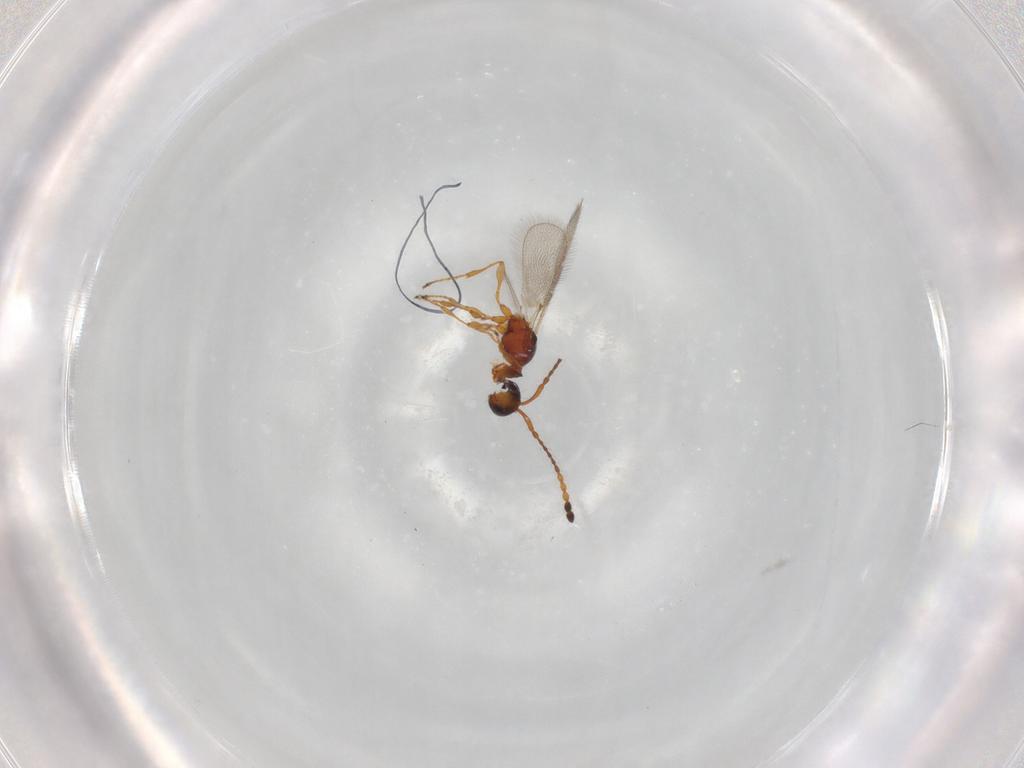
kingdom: Animalia
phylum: Arthropoda
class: Insecta
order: Hymenoptera
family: Diapriidae
